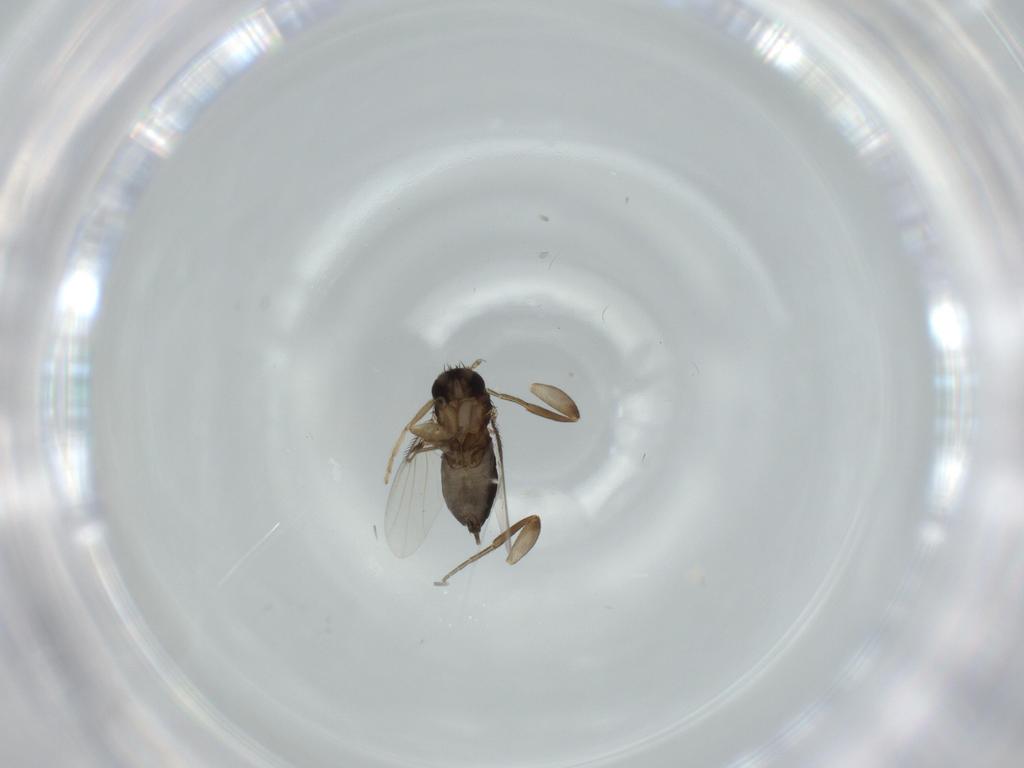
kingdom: Animalia
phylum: Arthropoda
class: Insecta
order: Diptera
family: Phoridae
